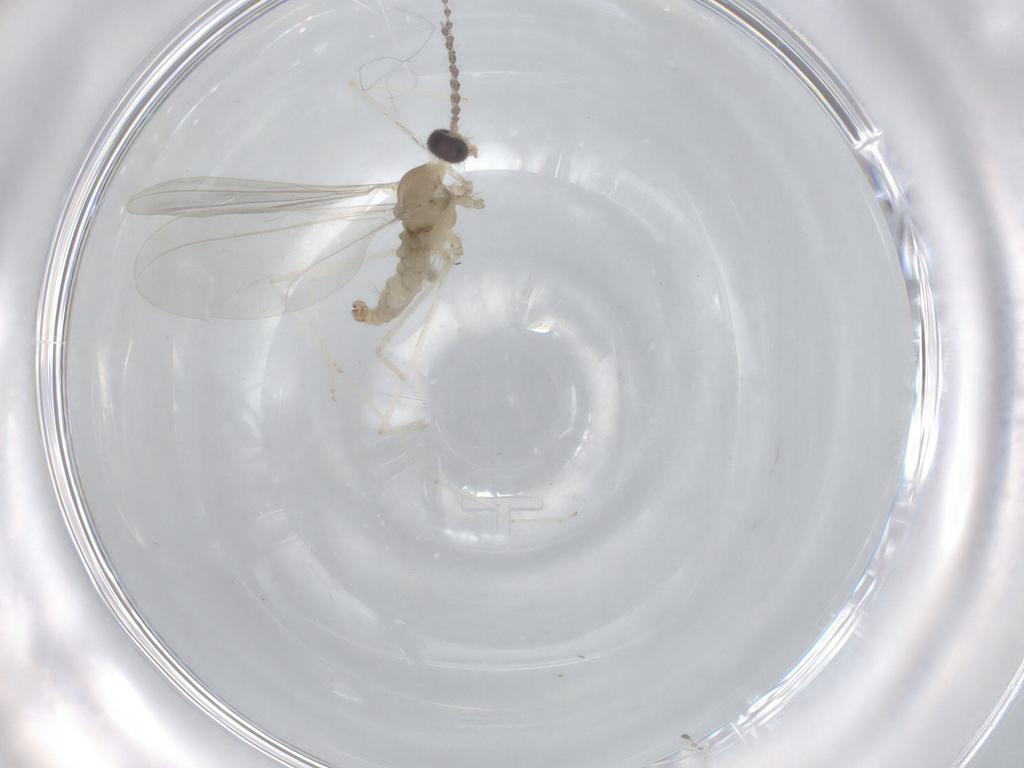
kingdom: Animalia
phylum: Arthropoda
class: Insecta
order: Diptera
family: Cecidomyiidae
